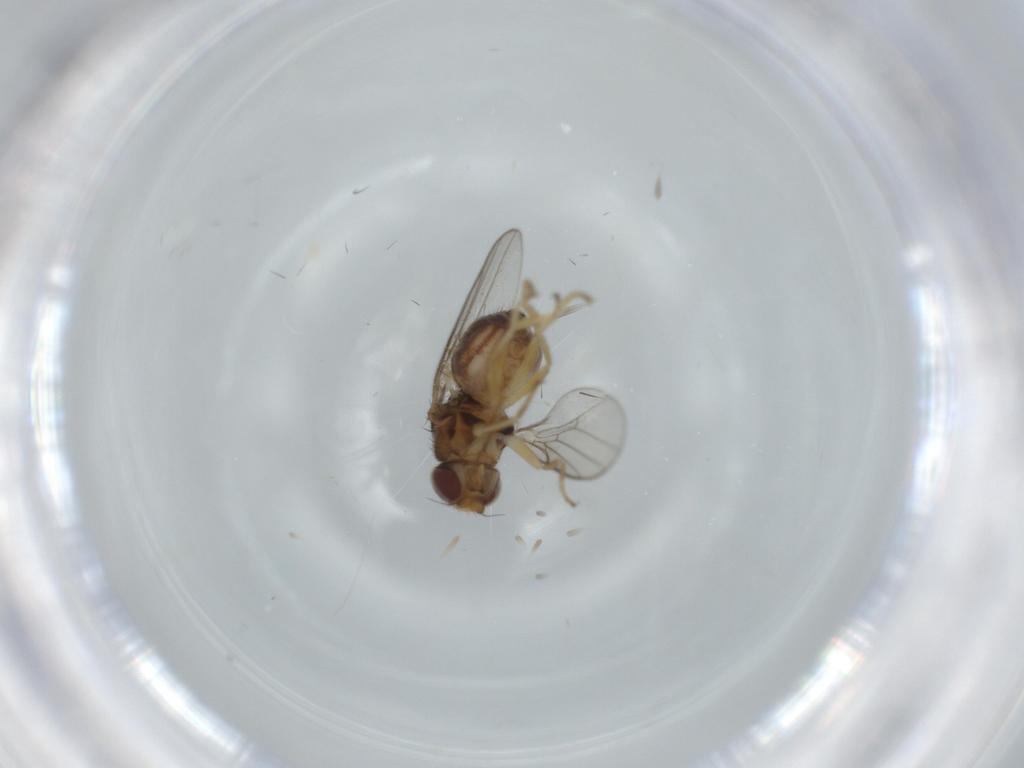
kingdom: Animalia
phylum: Arthropoda
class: Insecta
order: Diptera
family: Chloropidae
